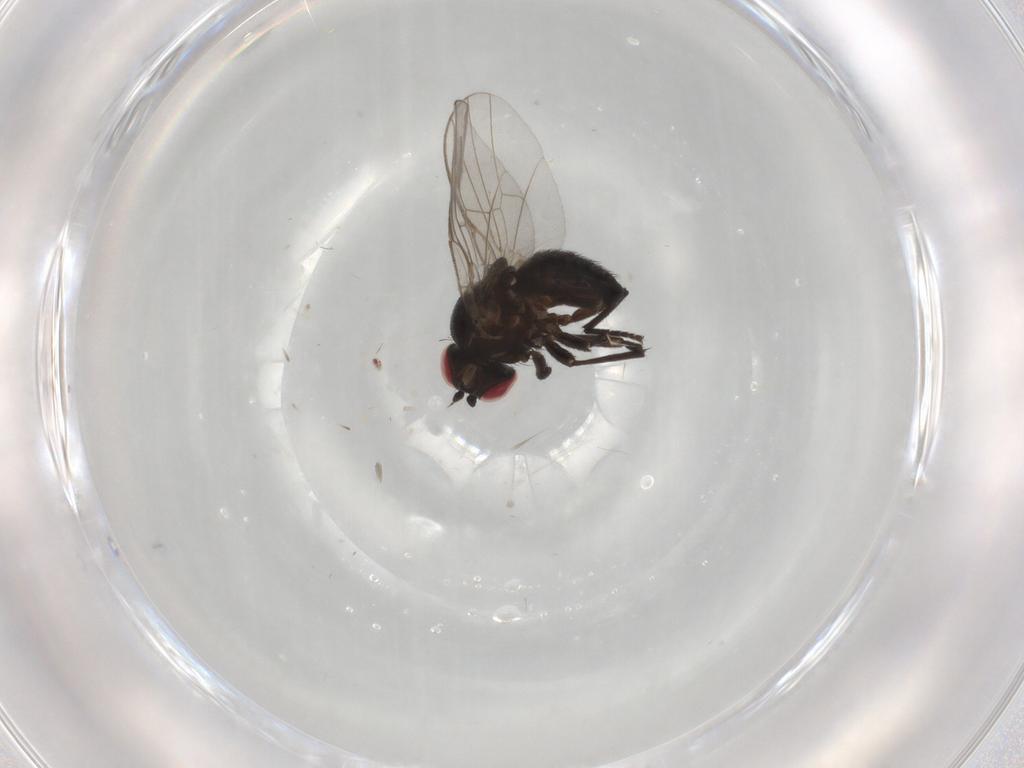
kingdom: Animalia
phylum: Arthropoda
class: Insecta
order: Diptera
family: Agromyzidae
